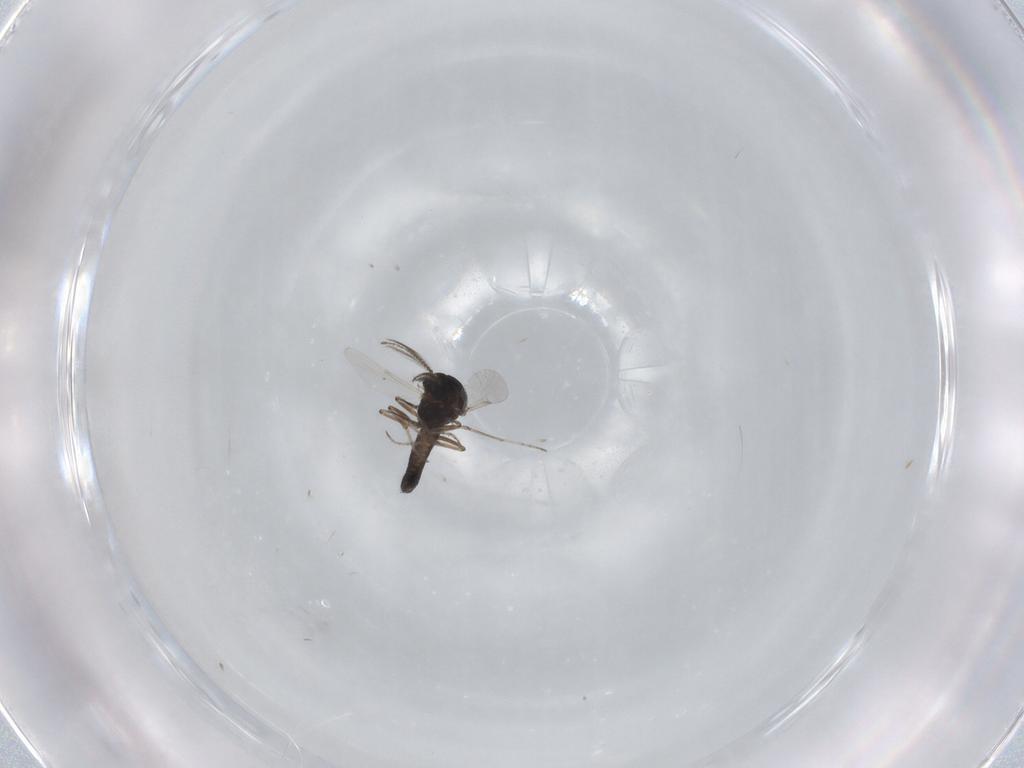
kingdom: Animalia
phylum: Arthropoda
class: Insecta
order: Diptera
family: Ceratopogonidae
